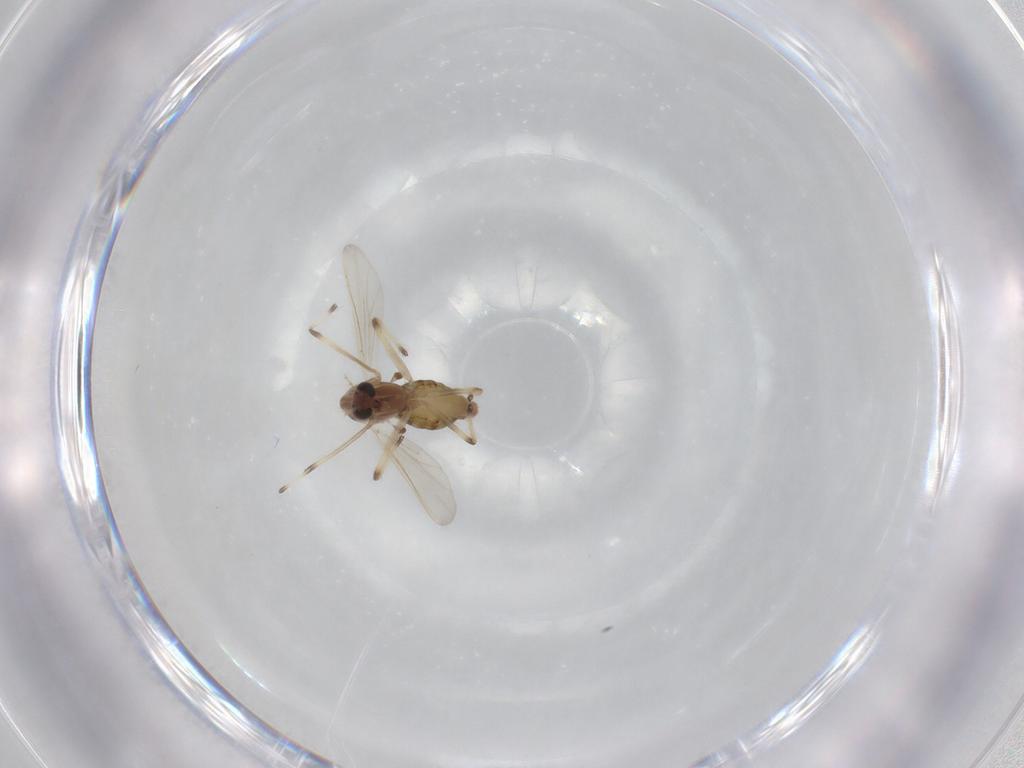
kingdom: Animalia
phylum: Arthropoda
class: Insecta
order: Diptera
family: Chironomidae
